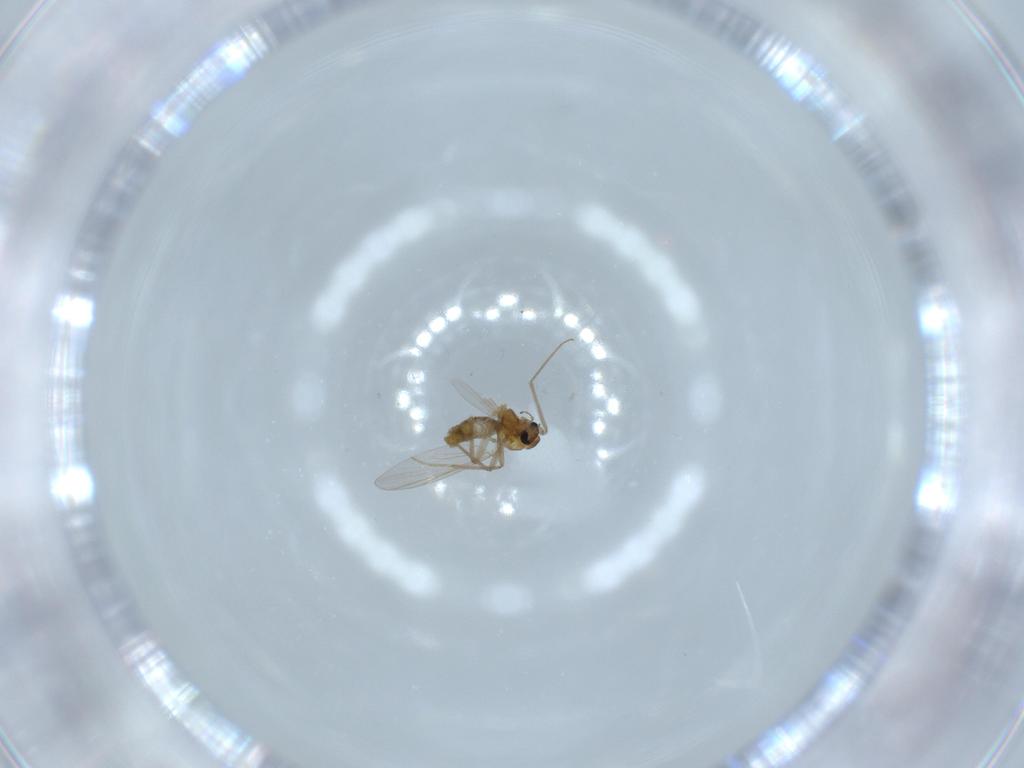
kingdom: Animalia
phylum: Arthropoda
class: Insecta
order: Diptera
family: Chironomidae
